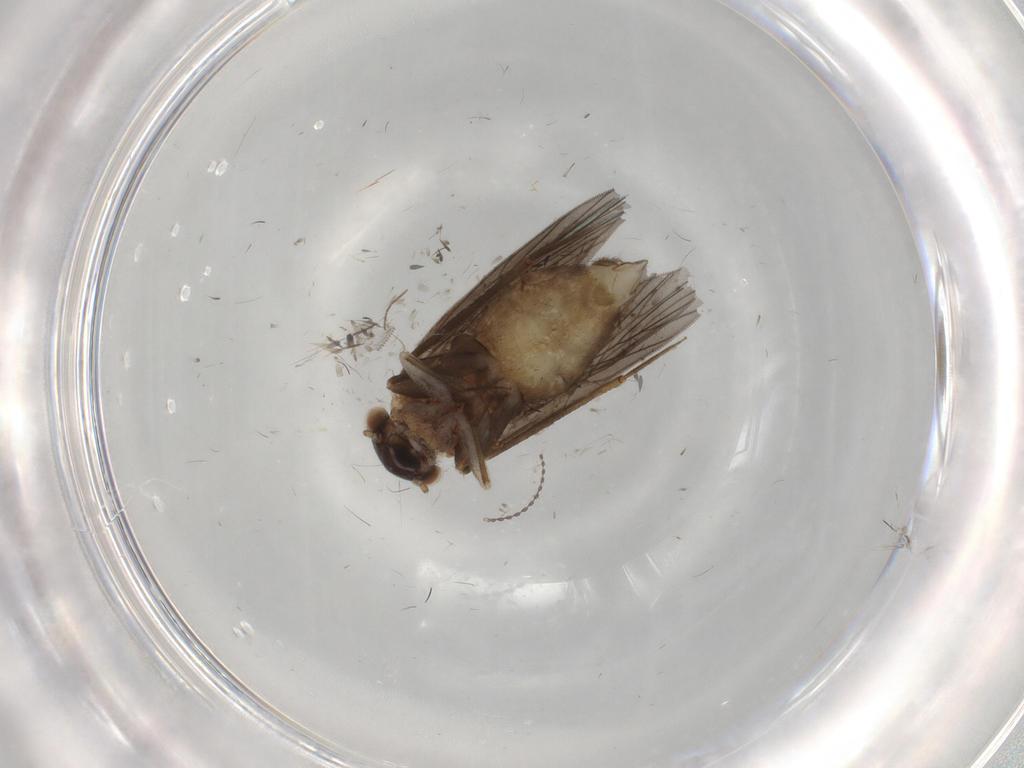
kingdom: Animalia
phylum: Arthropoda
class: Insecta
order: Psocodea
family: Lepidopsocidae
